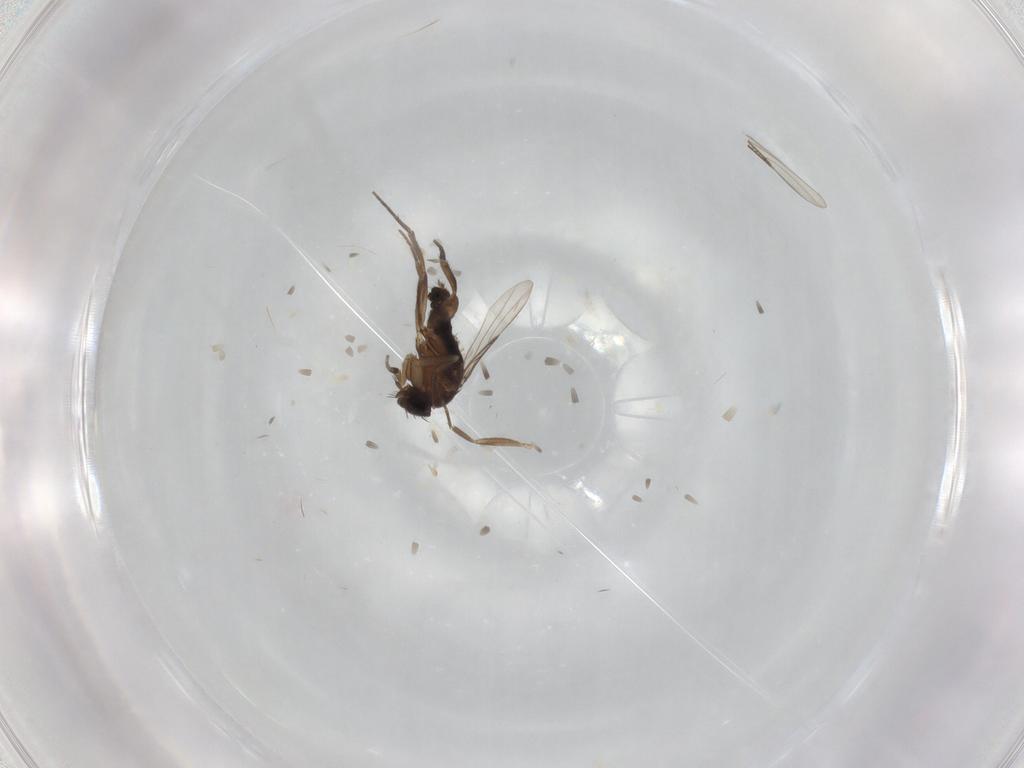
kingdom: Animalia
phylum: Arthropoda
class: Insecta
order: Diptera
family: Phoridae
